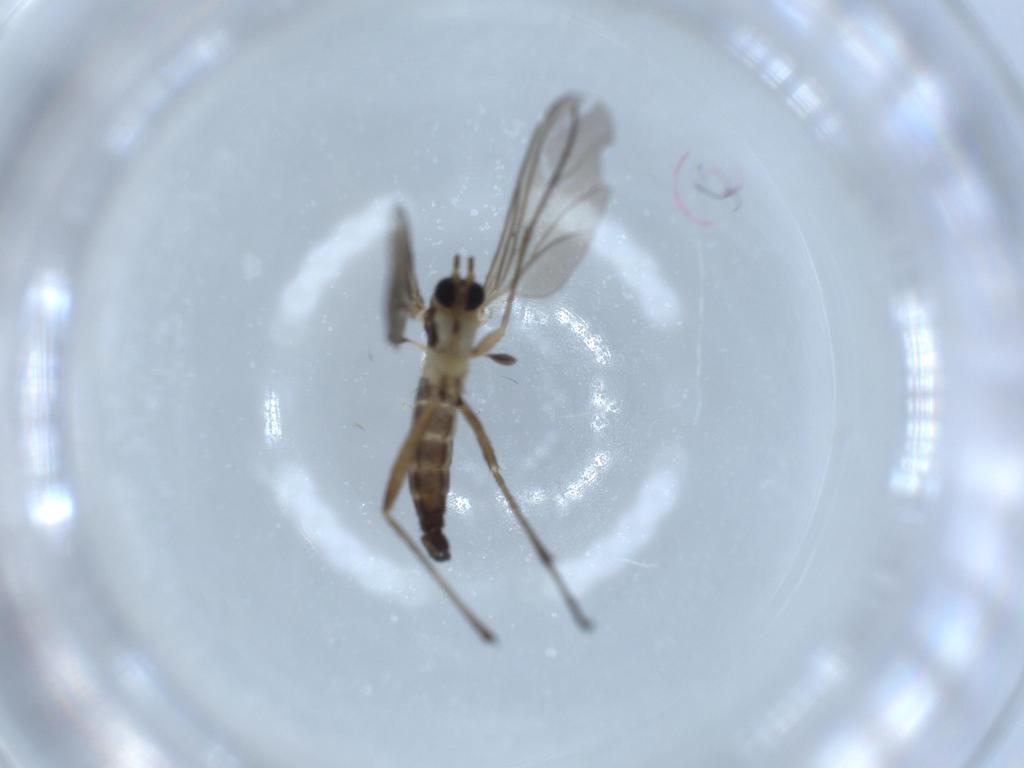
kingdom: Animalia
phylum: Arthropoda
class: Insecta
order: Diptera
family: Sciaridae
